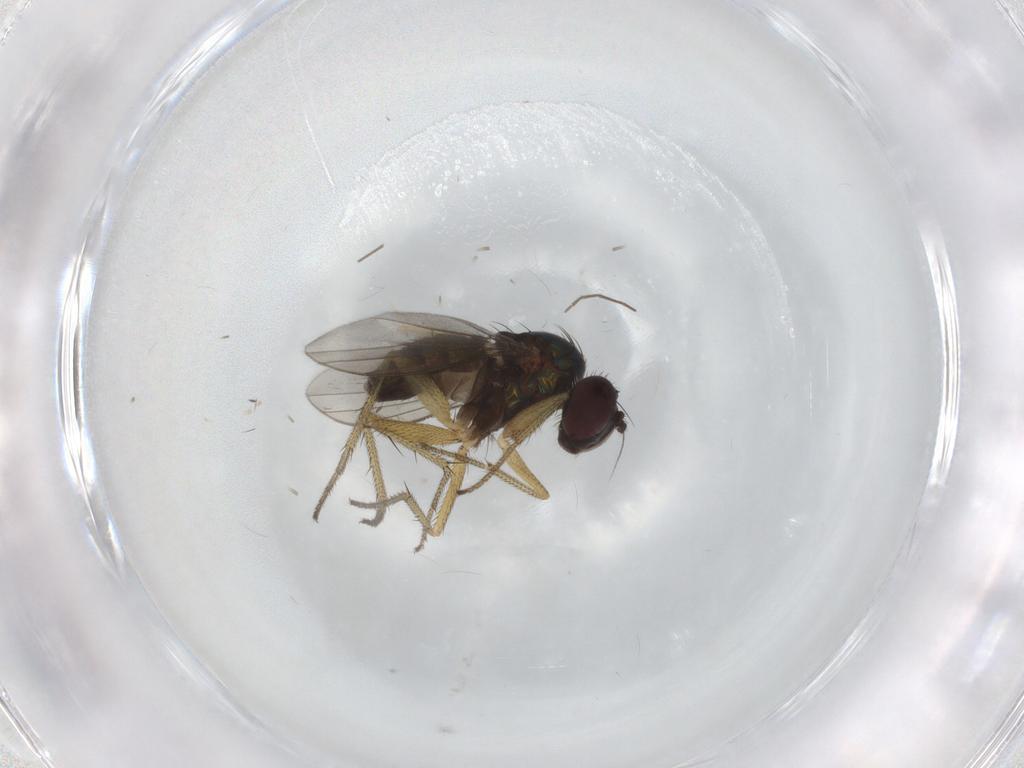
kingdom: Animalia
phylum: Arthropoda
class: Insecta
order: Diptera
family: Chironomidae
